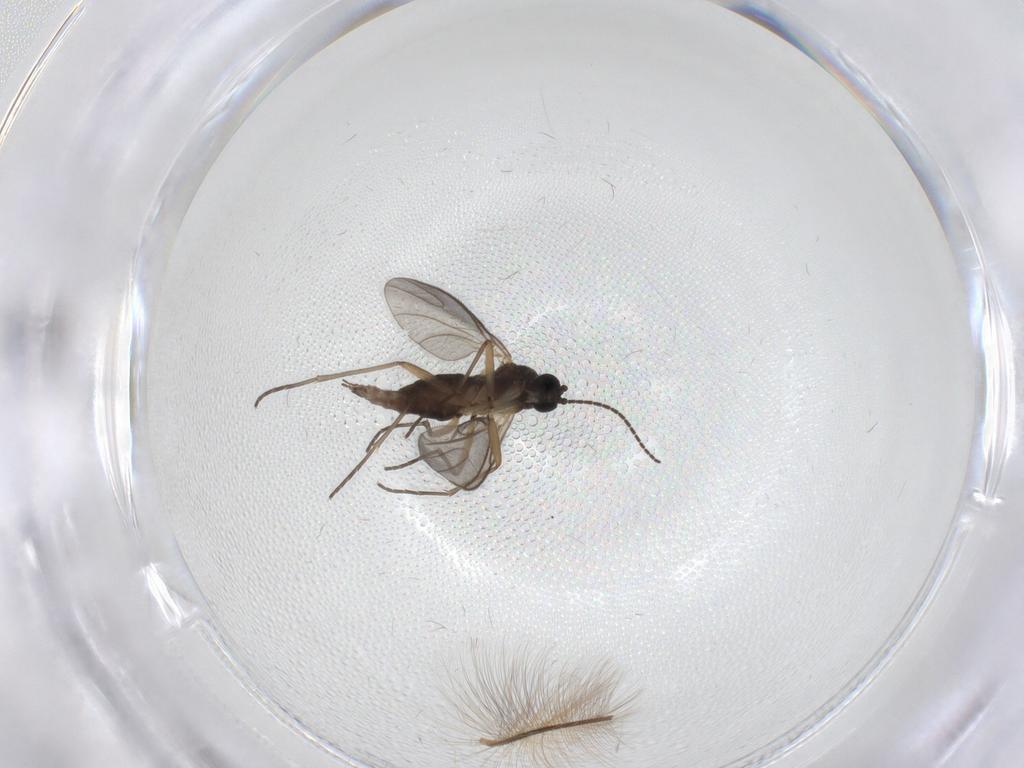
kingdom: Animalia
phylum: Arthropoda
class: Insecta
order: Diptera
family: Sciaridae
